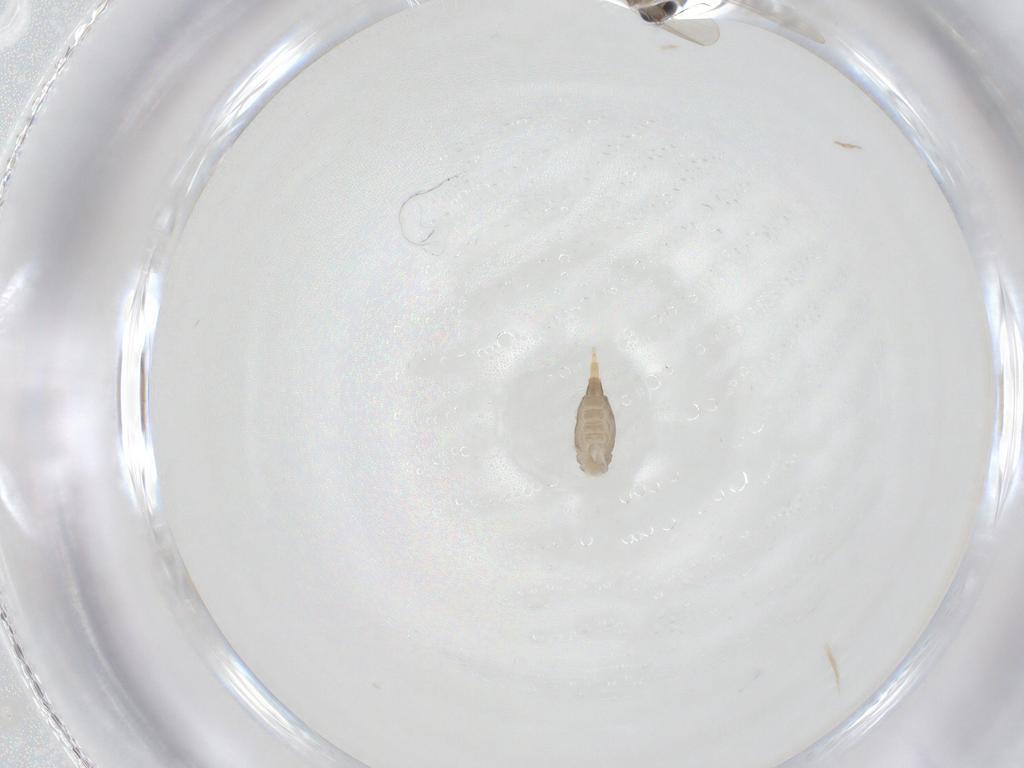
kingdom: Animalia
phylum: Arthropoda
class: Insecta
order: Diptera
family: Cecidomyiidae
